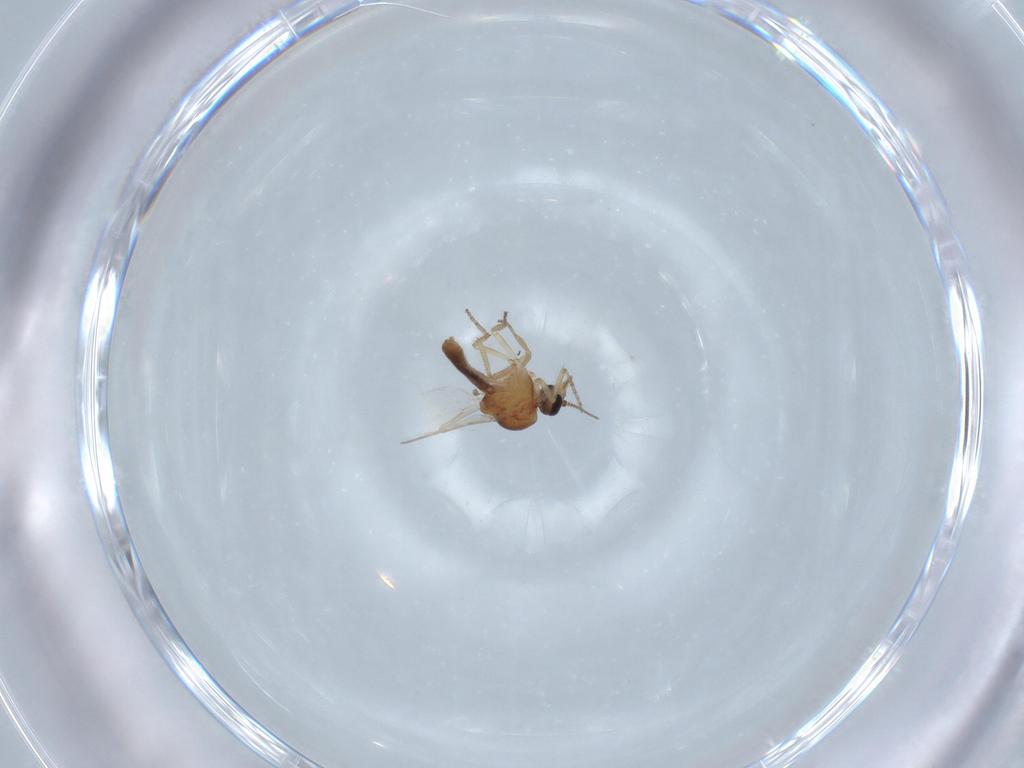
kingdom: Animalia
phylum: Arthropoda
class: Insecta
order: Diptera
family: Ceratopogonidae
